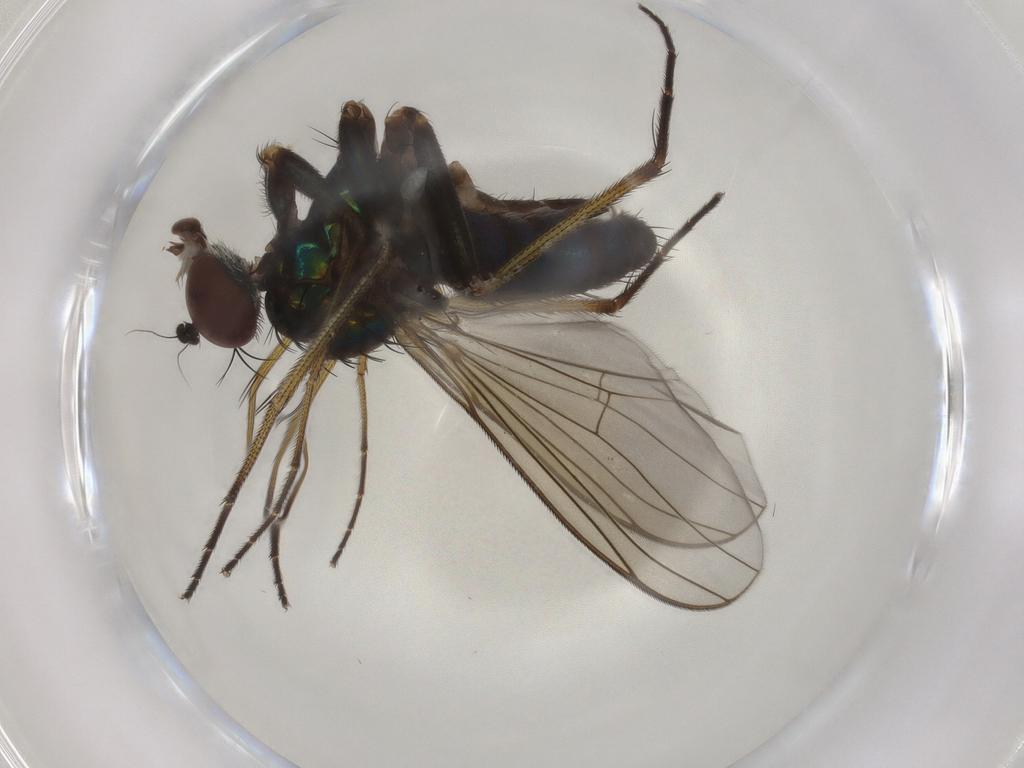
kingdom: Animalia
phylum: Arthropoda
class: Insecta
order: Diptera
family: Dolichopodidae
